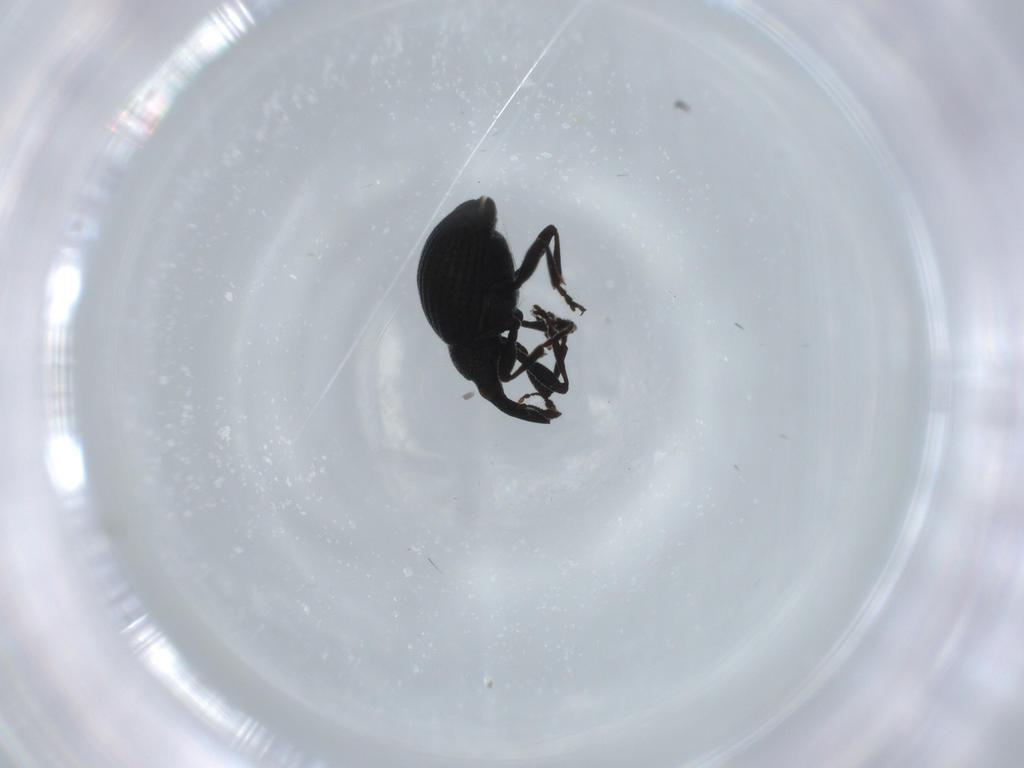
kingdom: Animalia
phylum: Arthropoda
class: Insecta
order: Coleoptera
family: Brentidae
